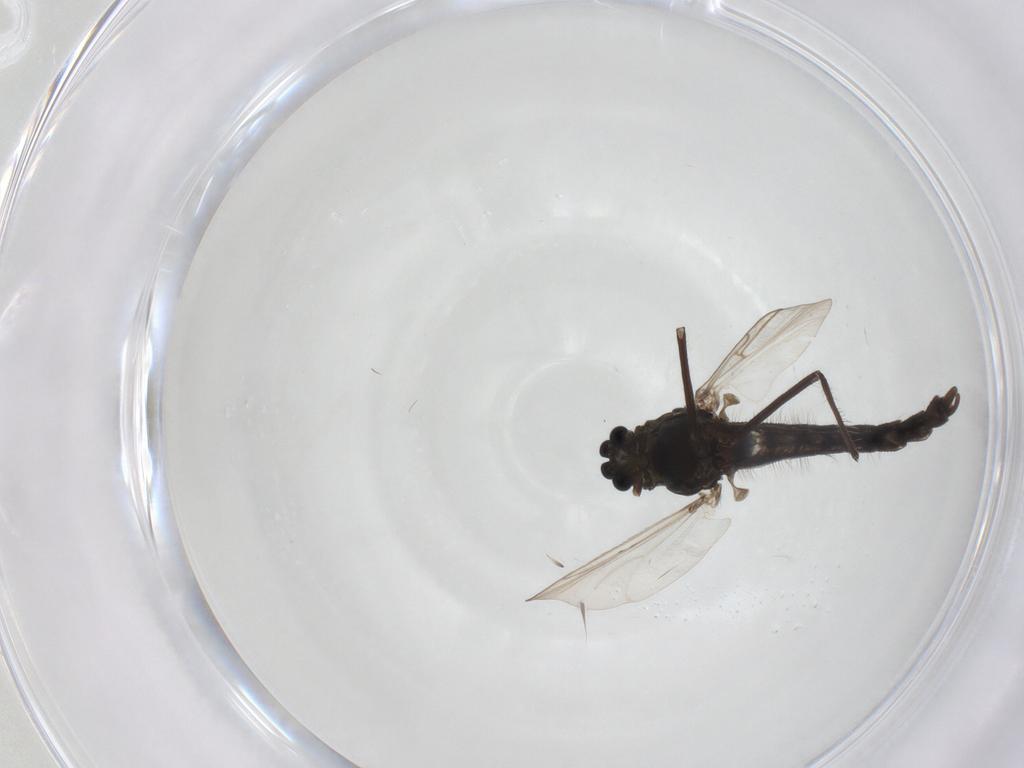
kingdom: Animalia
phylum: Arthropoda
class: Insecta
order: Diptera
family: Chironomidae
